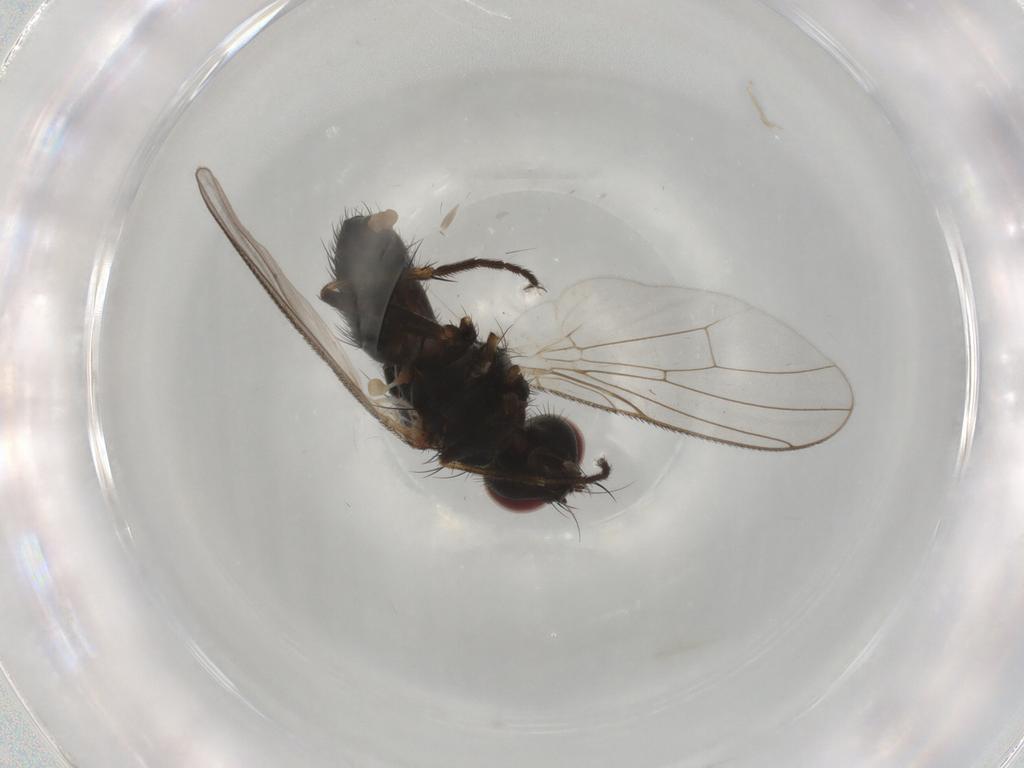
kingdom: Animalia
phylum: Arthropoda
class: Insecta
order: Diptera
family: Muscidae
